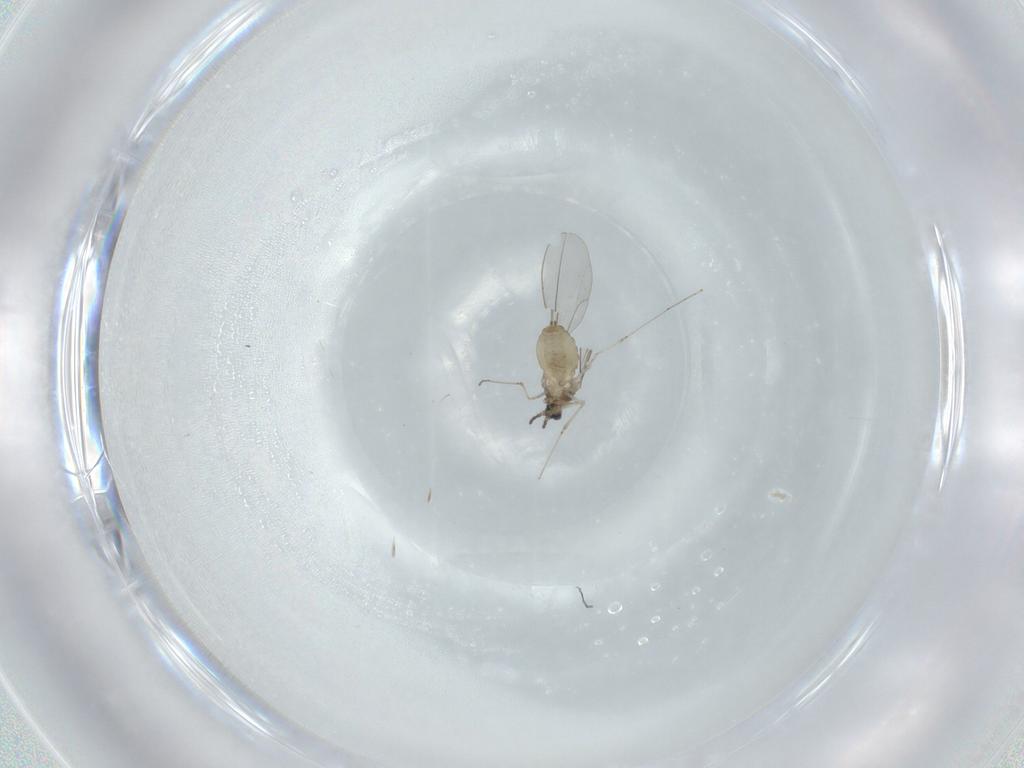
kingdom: Animalia
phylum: Arthropoda
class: Insecta
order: Diptera
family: Cecidomyiidae
